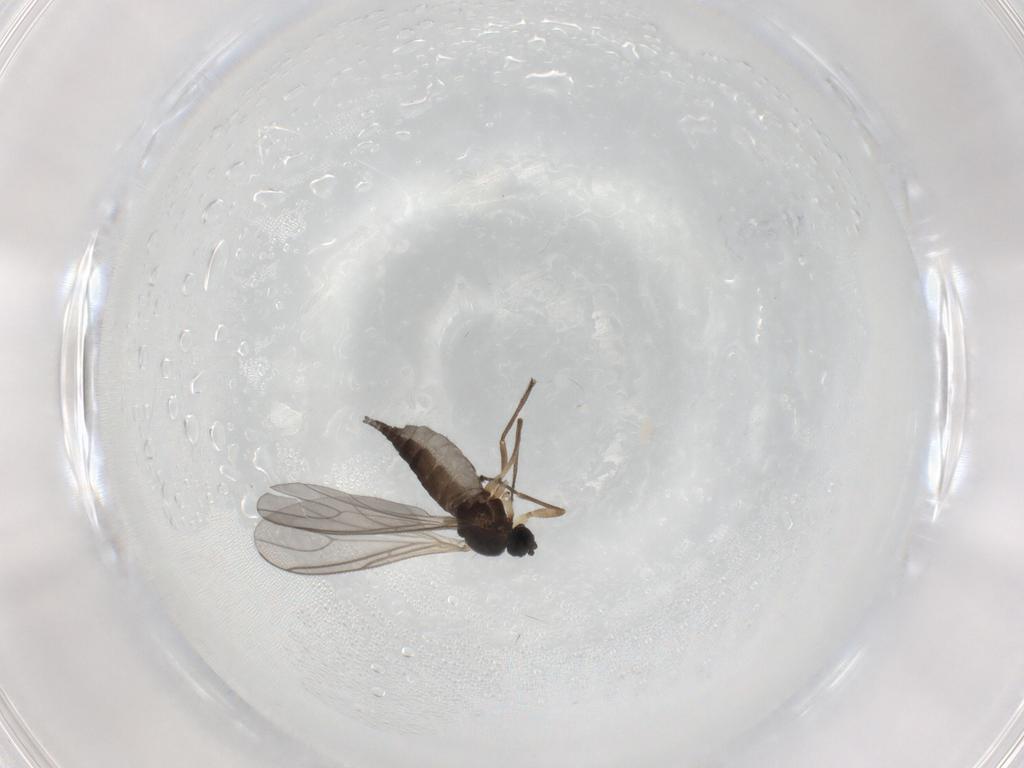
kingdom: Animalia
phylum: Arthropoda
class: Insecta
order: Diptera
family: Sciaridae
